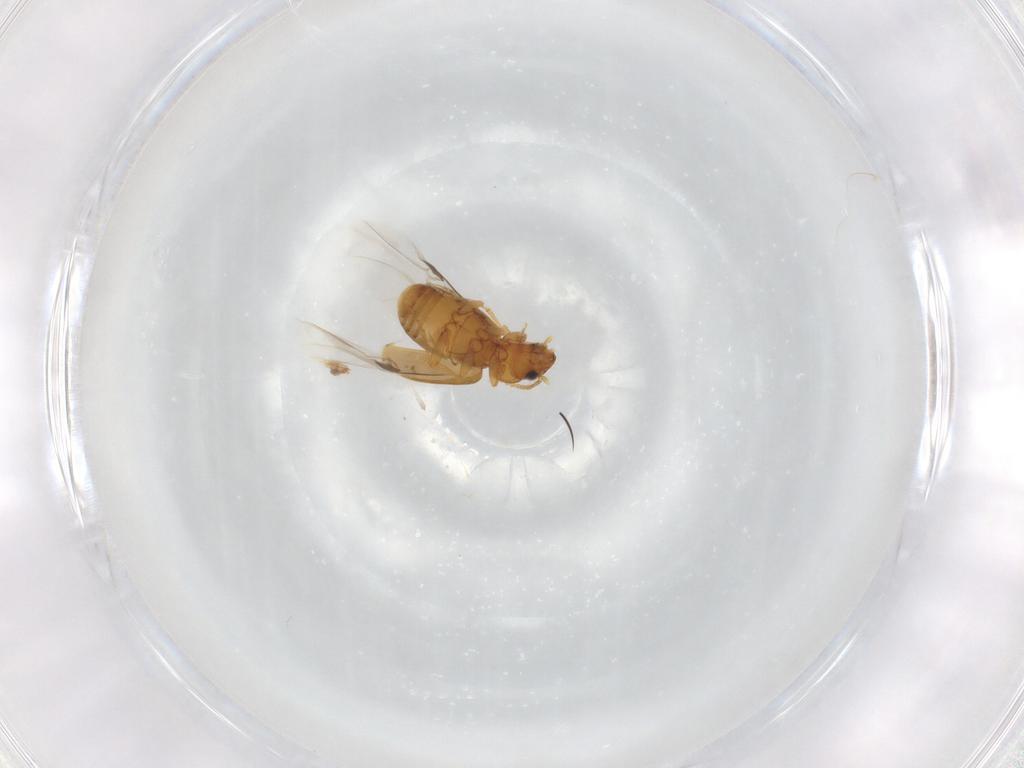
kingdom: Animalia
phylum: Arthropoda
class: Insecta
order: Coleoptera
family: Carabidae
